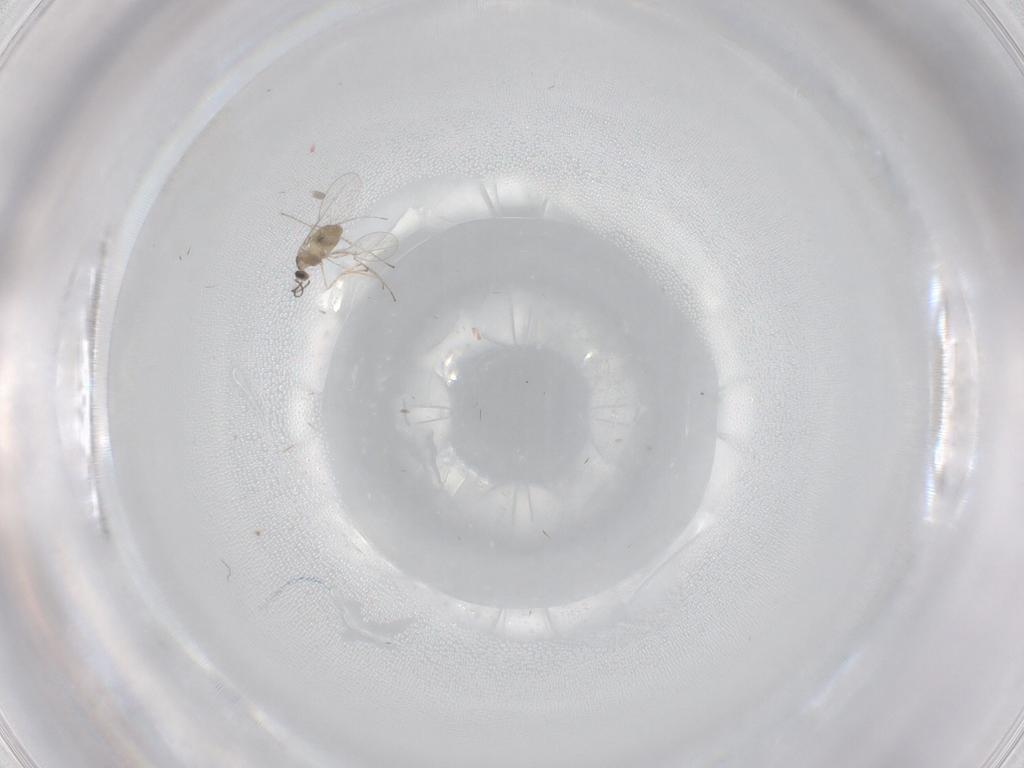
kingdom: Animalia
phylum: Arthropoda
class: Insecta
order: Diptera
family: Cecidomyiidae
